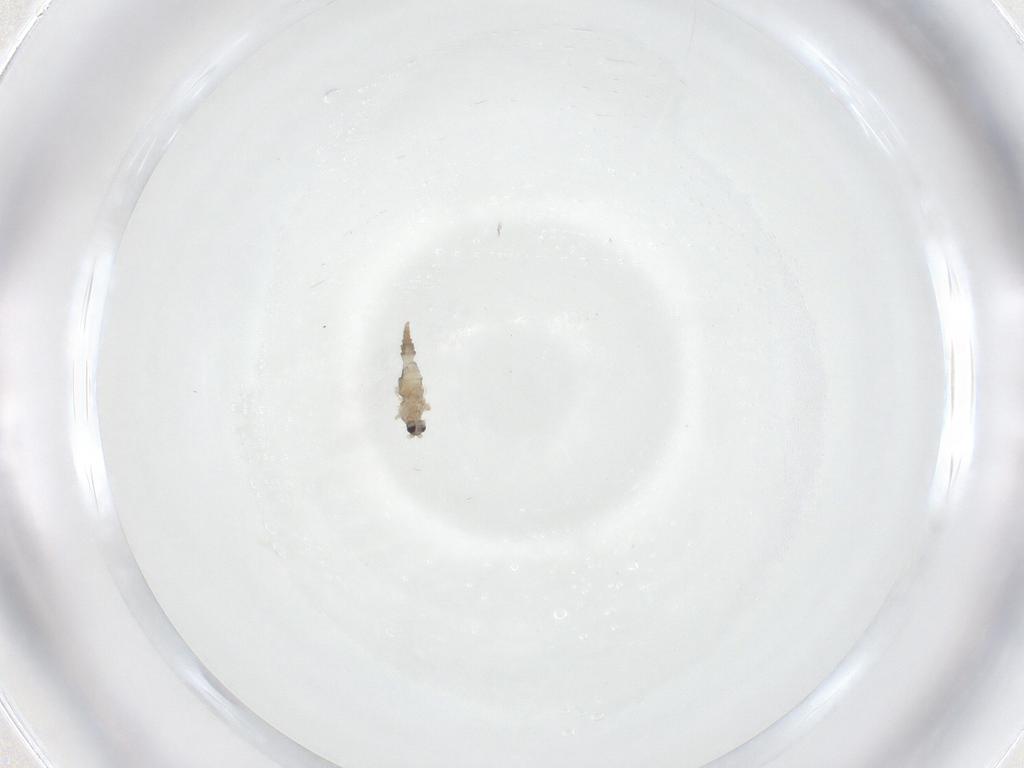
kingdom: Animalia
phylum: Arthropoda
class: Insecta
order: Diptera
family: Cecidomyiidae
